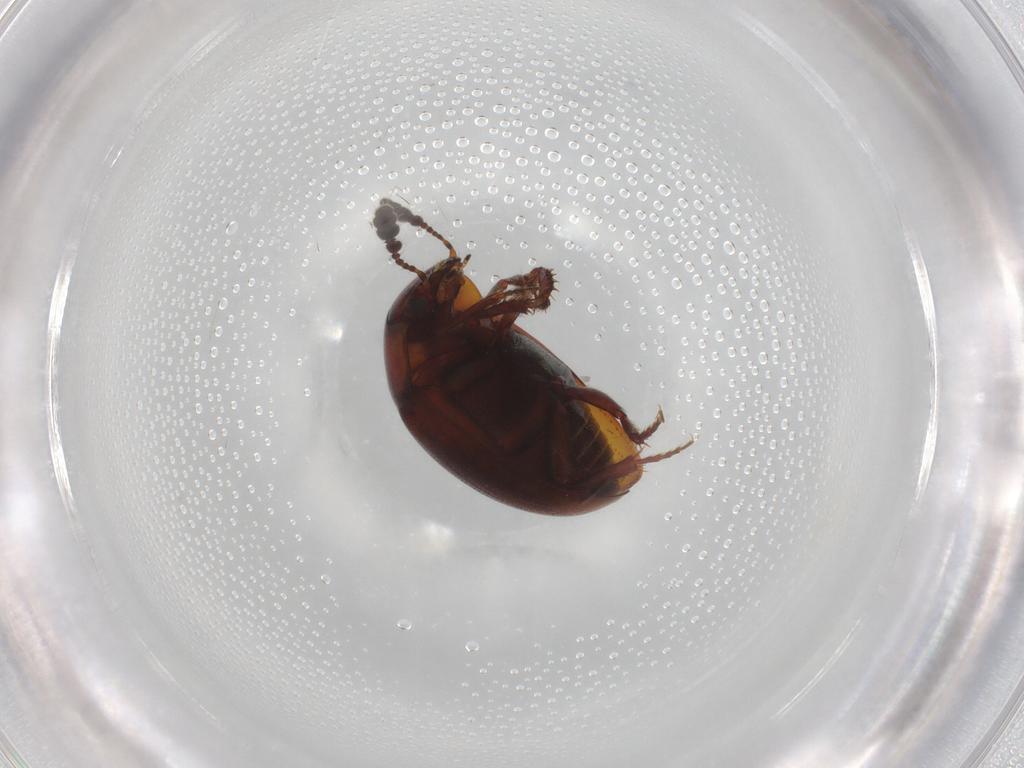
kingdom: Animalia
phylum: Arthropoda
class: Insecta
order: Coleoptera
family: Leiodidae
